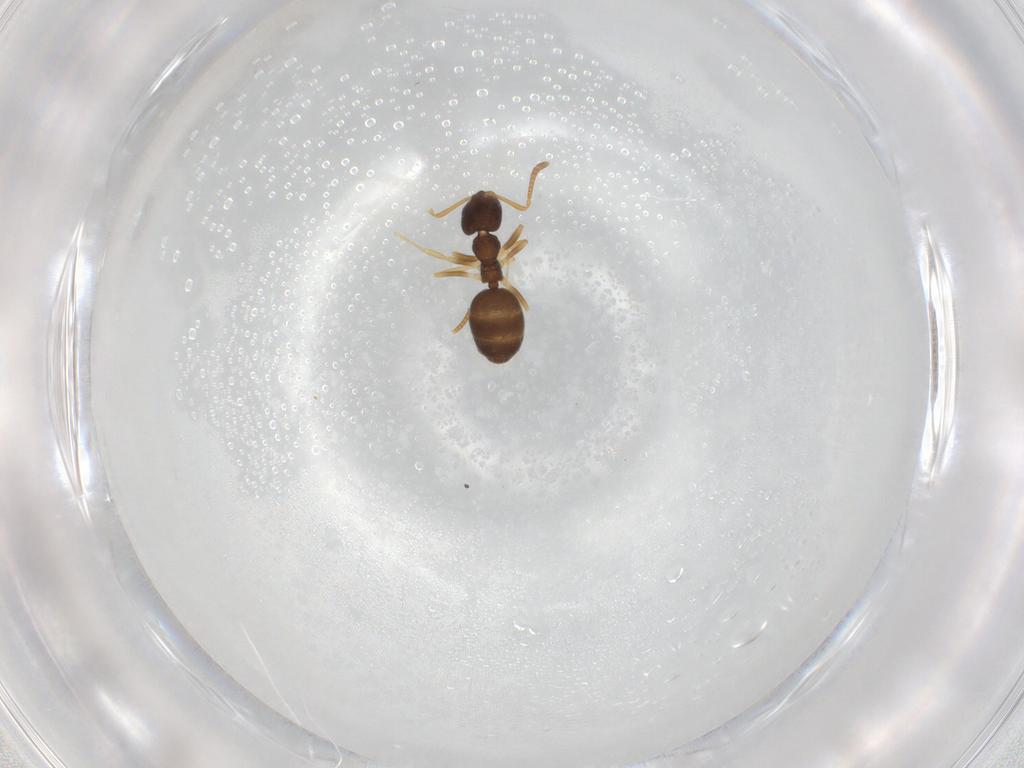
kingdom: Animalia
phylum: Arthropoda
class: Insecta
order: Hymenoptera
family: Formicidae
